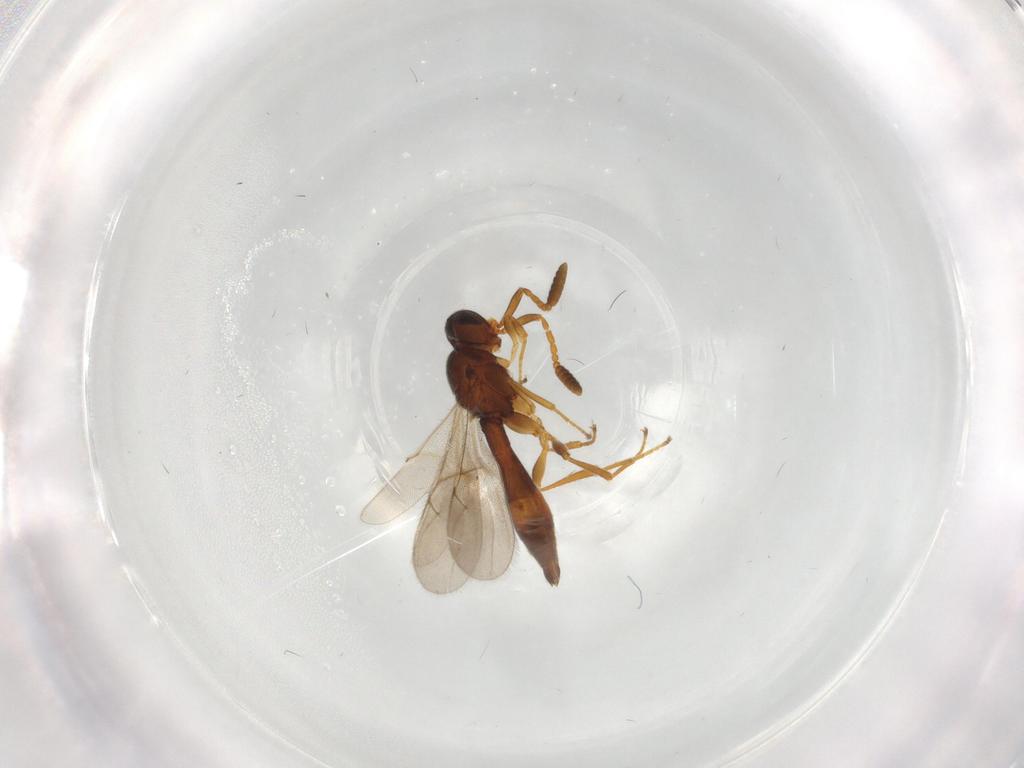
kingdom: Animalia
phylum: Arthropoda
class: Insecta
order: Hymenoptera
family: Scelionidae
